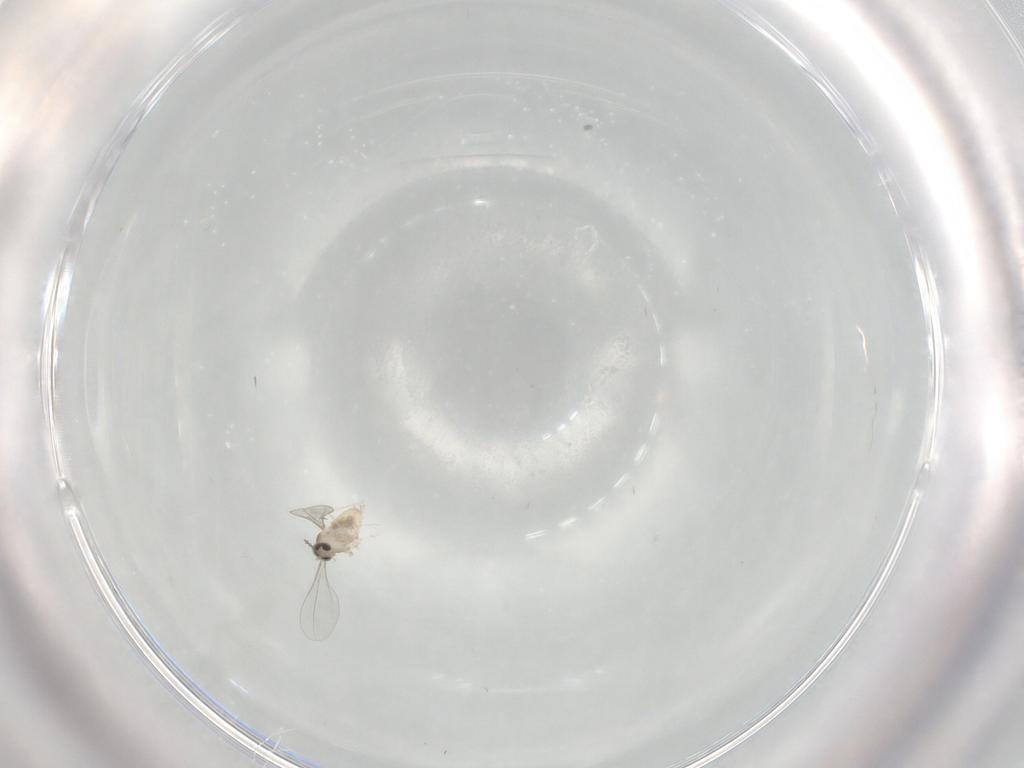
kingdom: Animalia
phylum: Arthropoda
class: Insecta
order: Diptera
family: Cecidomyiidae
